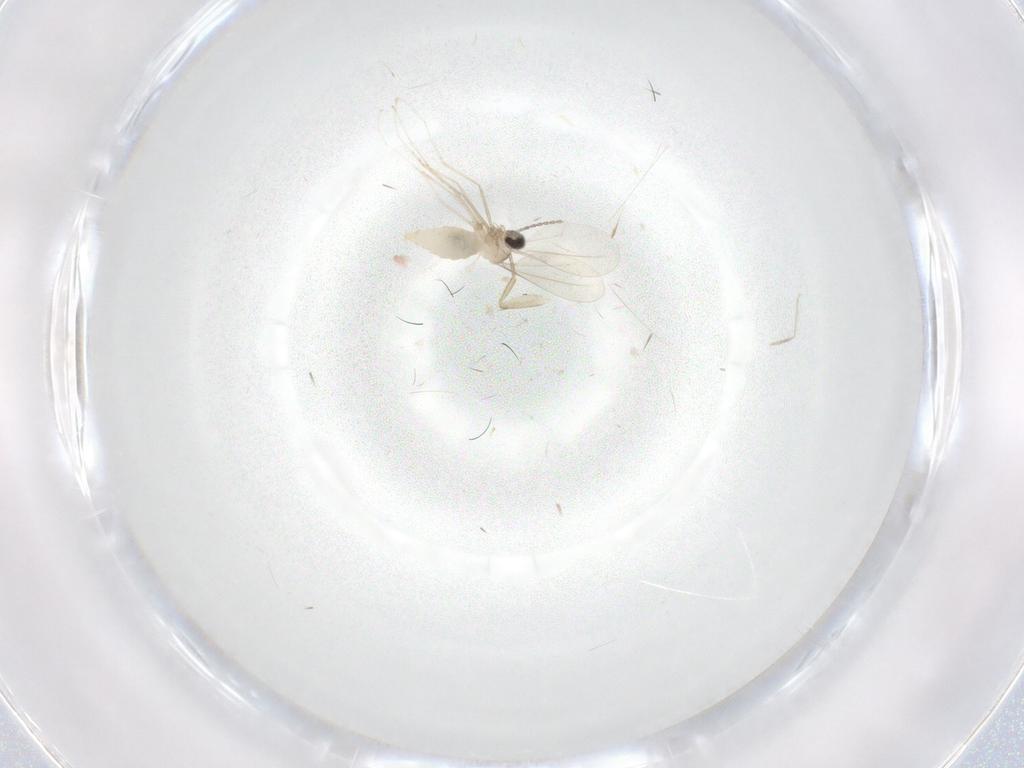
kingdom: Animalia
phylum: Arthropoda
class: Insecta
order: Diptera
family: Cecidomyiidae
